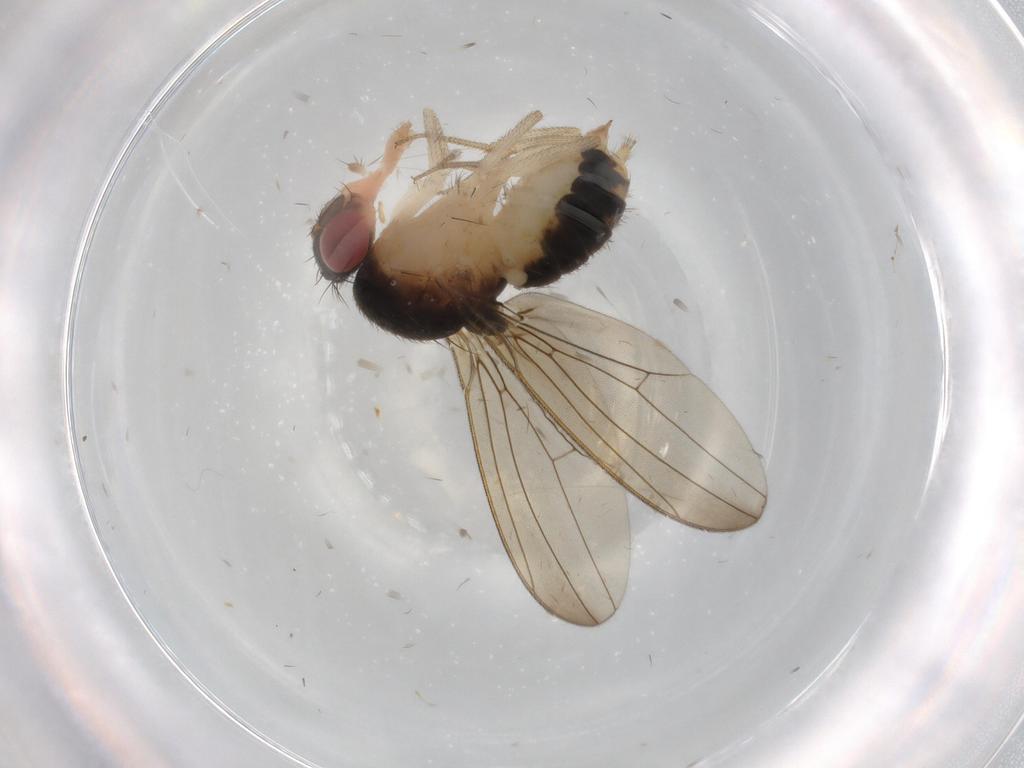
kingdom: Animalia
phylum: Arthropoda
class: Insecta
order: Diptera
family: Drosophilidae
